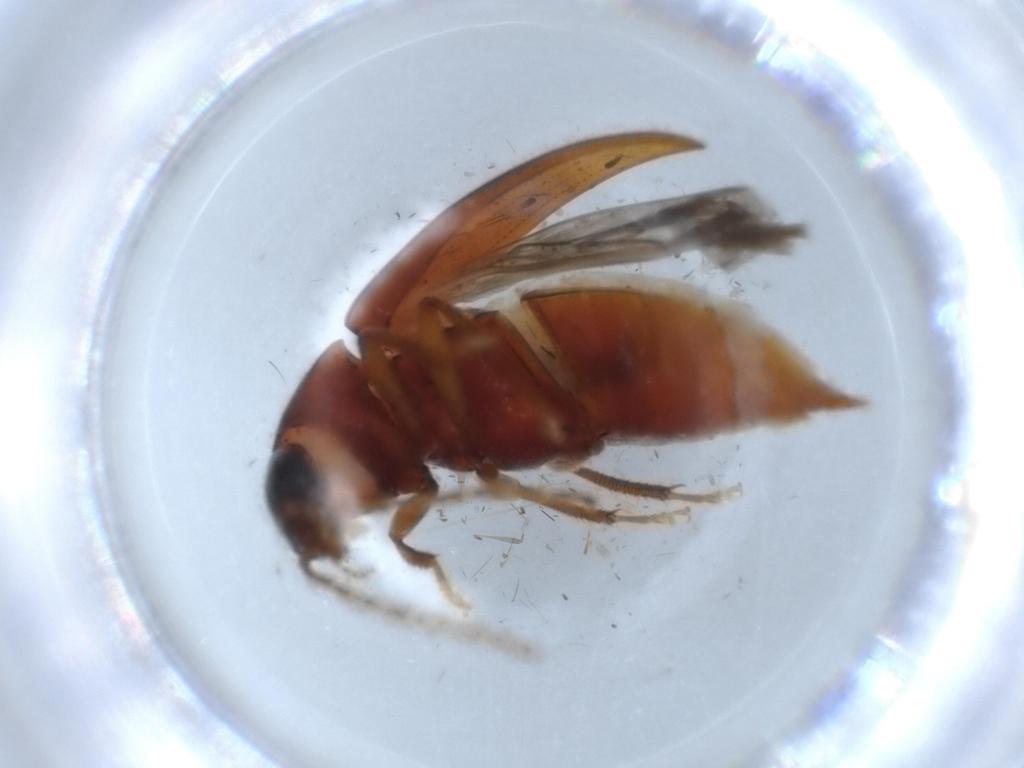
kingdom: Animalia
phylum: Arthropoda
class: Insecta
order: Coleoptera
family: Ptilodactylidae
